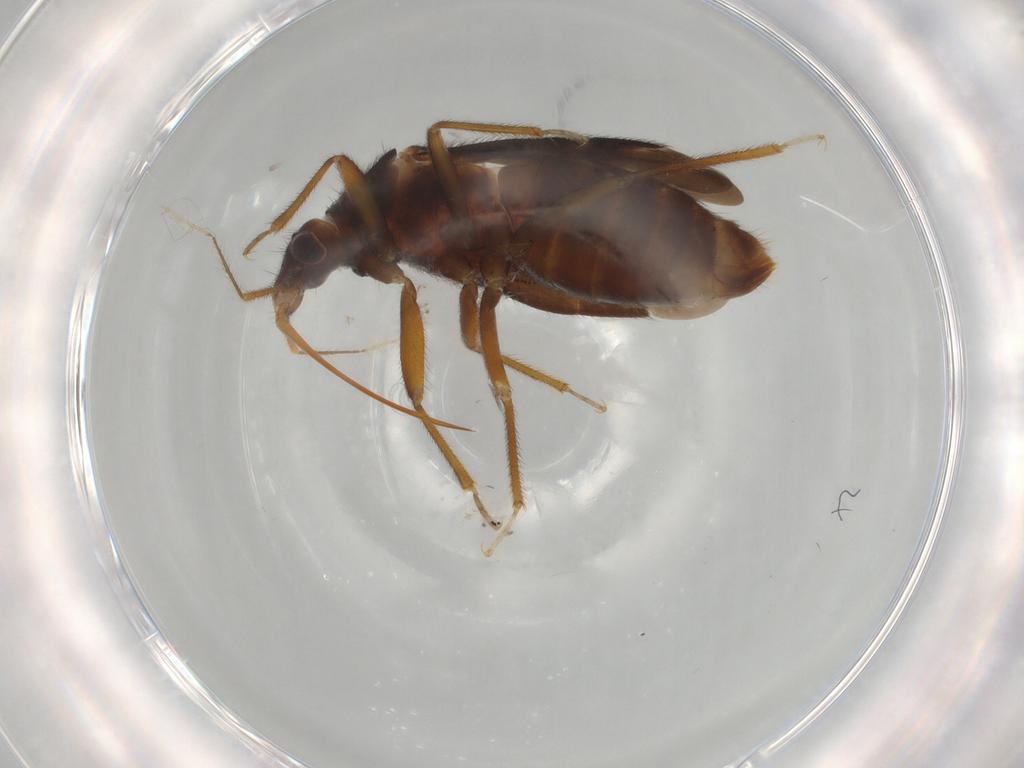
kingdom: Animalia
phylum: Arthropoda
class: Insecta
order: Hemiptera
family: Anthocoridae
